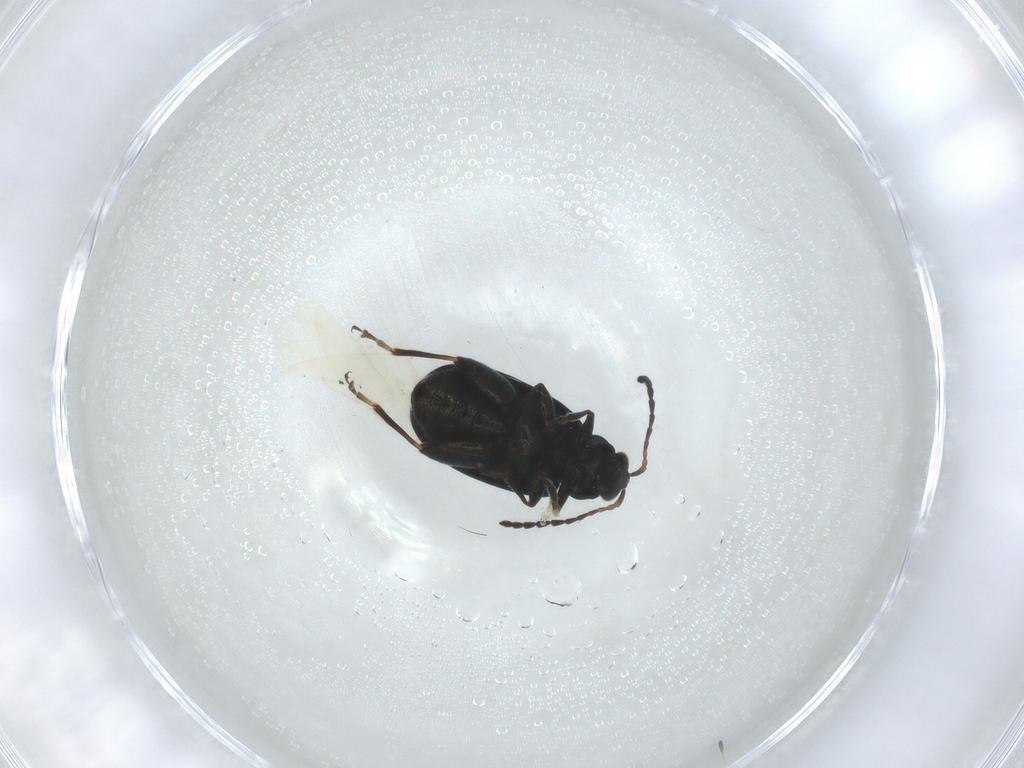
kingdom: Animalia
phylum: Arthropoda
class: Insecta
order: Coleoptera
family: Chrysomelidae
